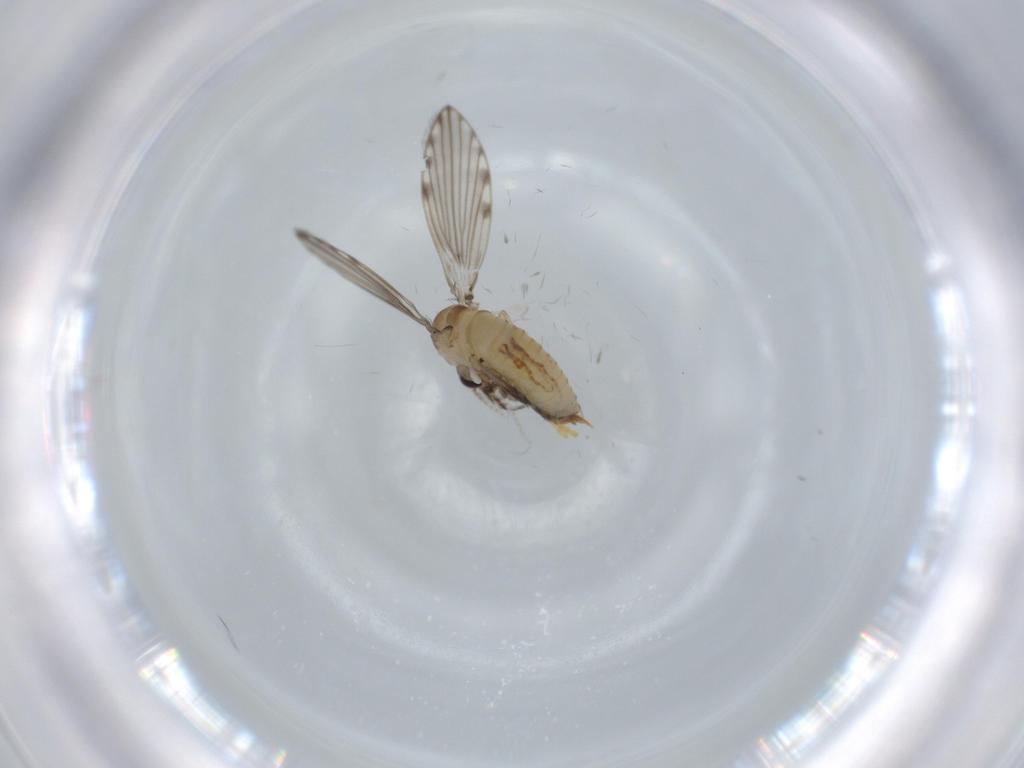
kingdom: Animalia
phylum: Arthropoda
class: Insecta
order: Diptera
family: Psychodidae
